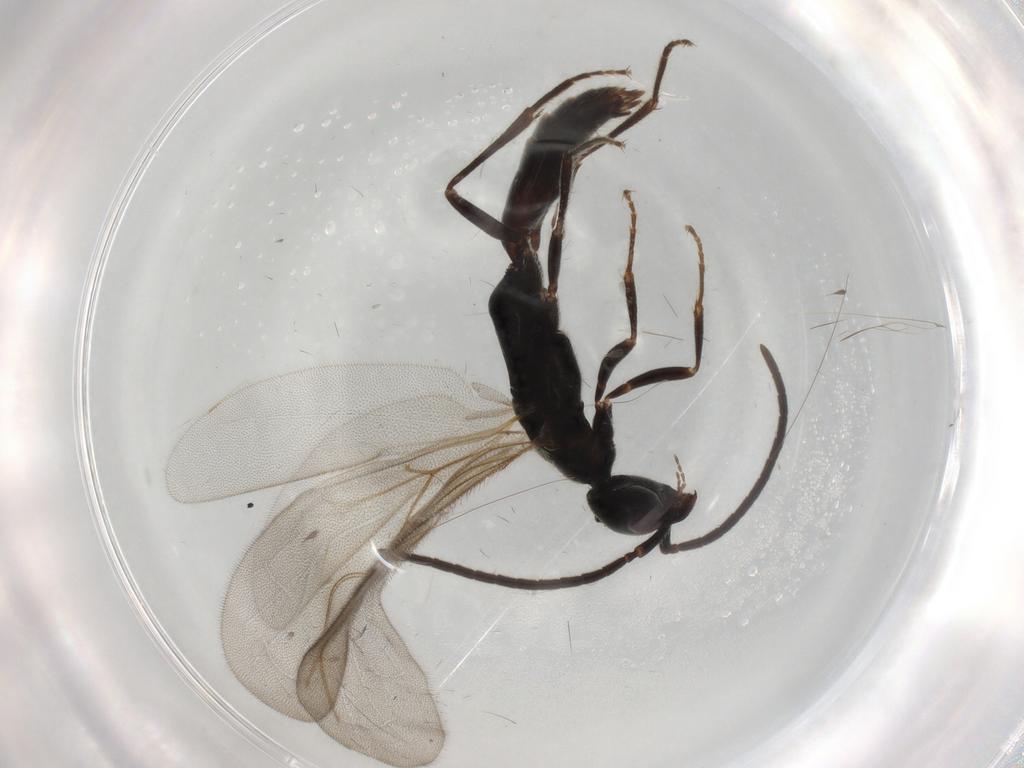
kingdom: Animalia
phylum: Arthropoda
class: Insecta
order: Hymenoptera
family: Bethylidae
